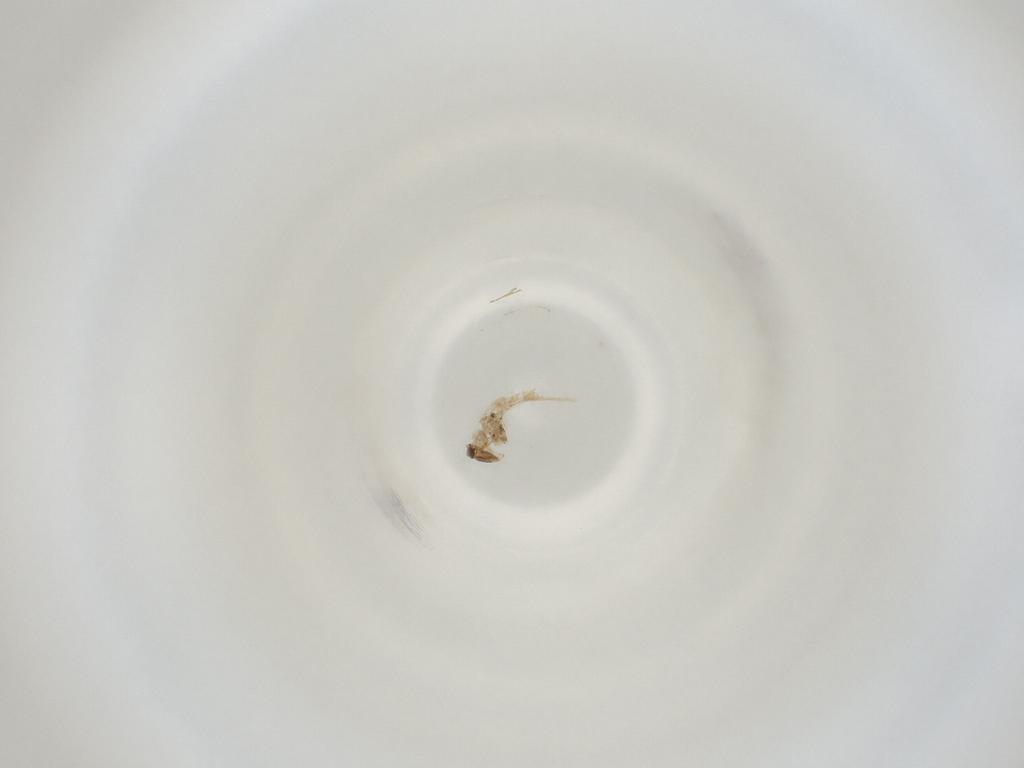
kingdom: Animalia
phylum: Arthropoda
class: Insecta
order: Diptera
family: Cecidomyiidae
